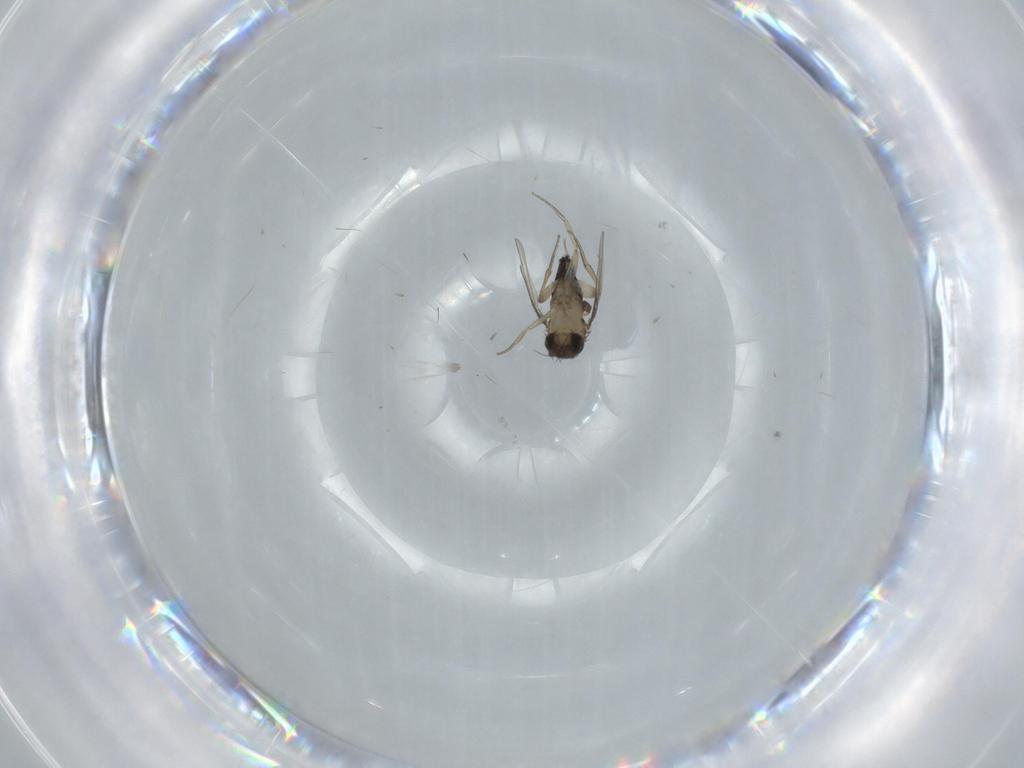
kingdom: Animalia
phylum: Arthropoda
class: Insecta
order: Diptera
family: Phoridae
